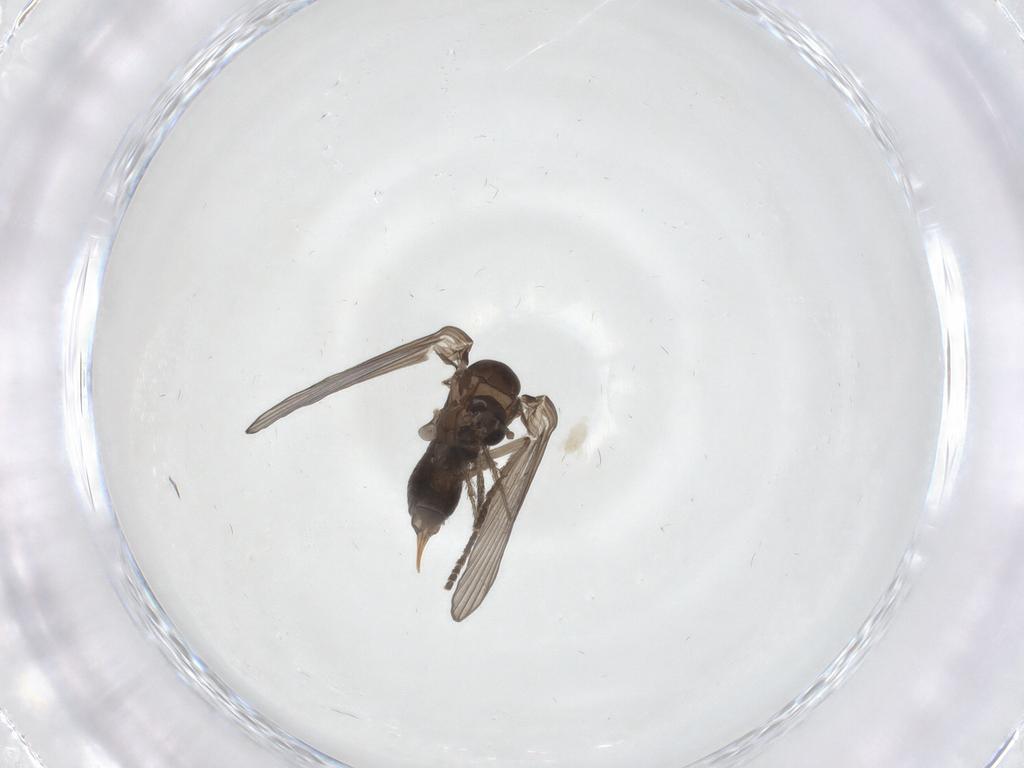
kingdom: Animalia
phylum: Arthropoda
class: Insecta
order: Diptera
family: Psychodidae
